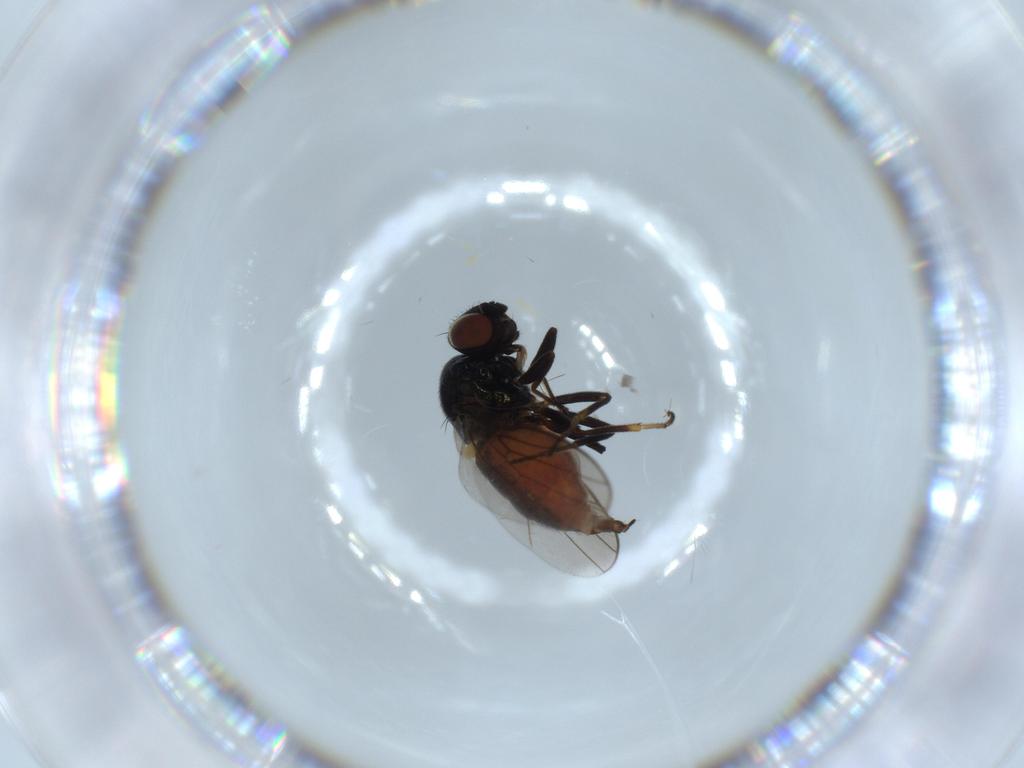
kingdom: Animalia
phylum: Arthropoda
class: Insecta
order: Diptera
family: Chloropidae
